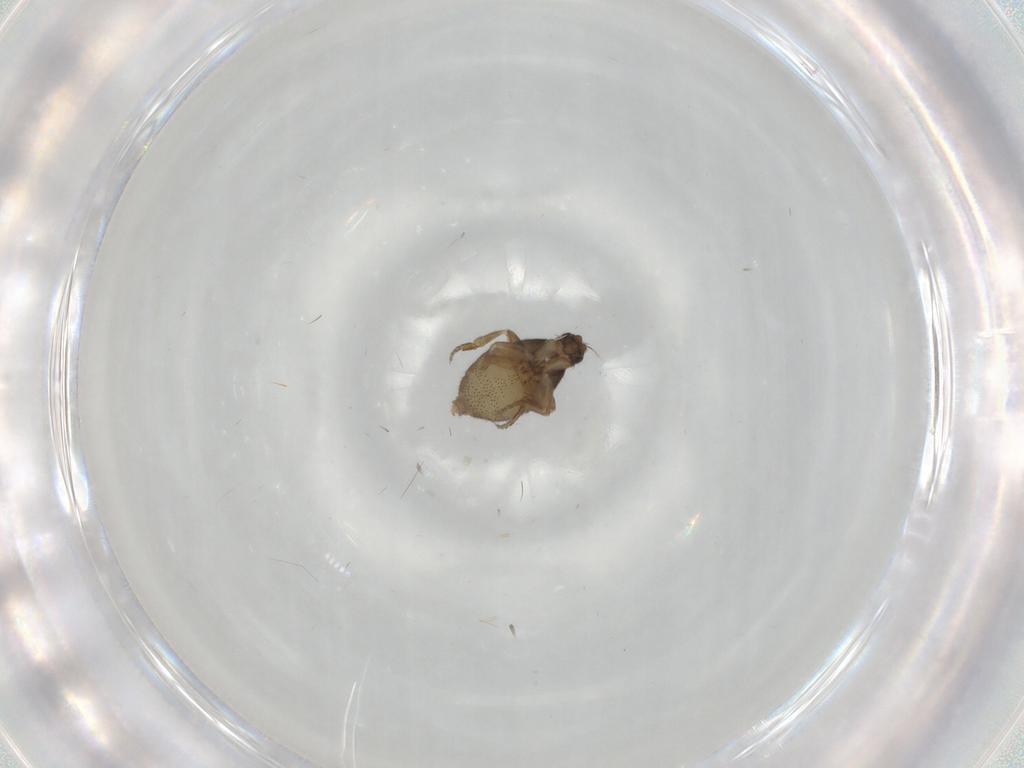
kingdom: Animalia
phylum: Arthropoda
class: Insecta
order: Diptera
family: Phoridae
